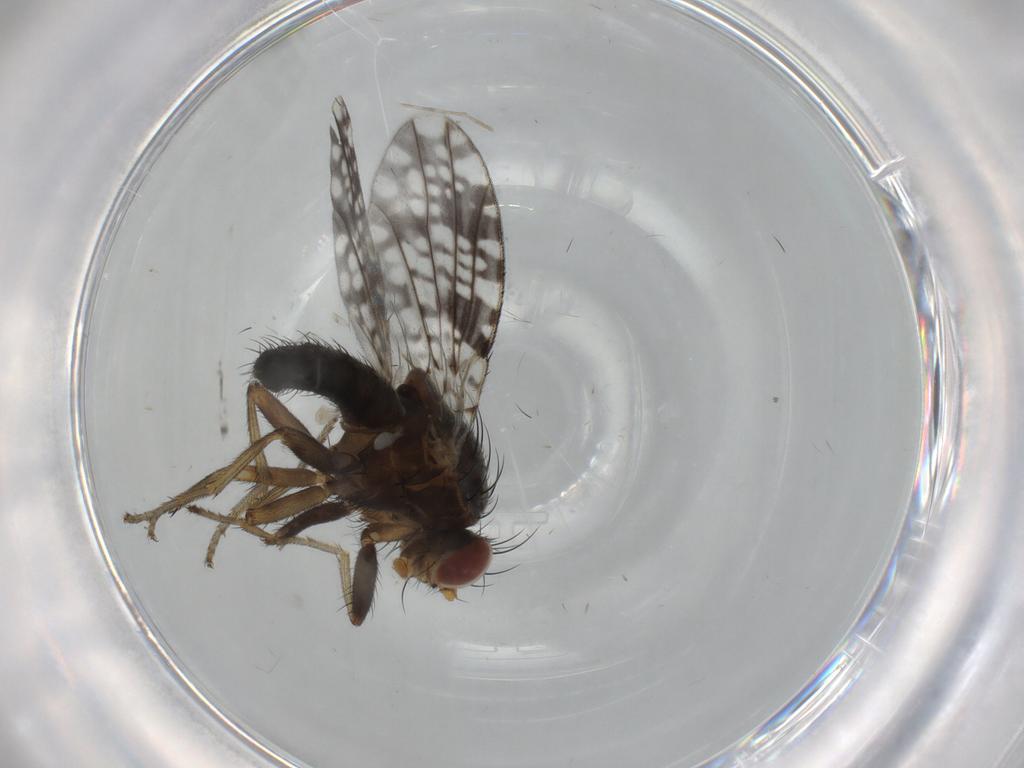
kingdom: Animalia
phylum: Arthropoda
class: Insecta
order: Diptera
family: Tephritidae
